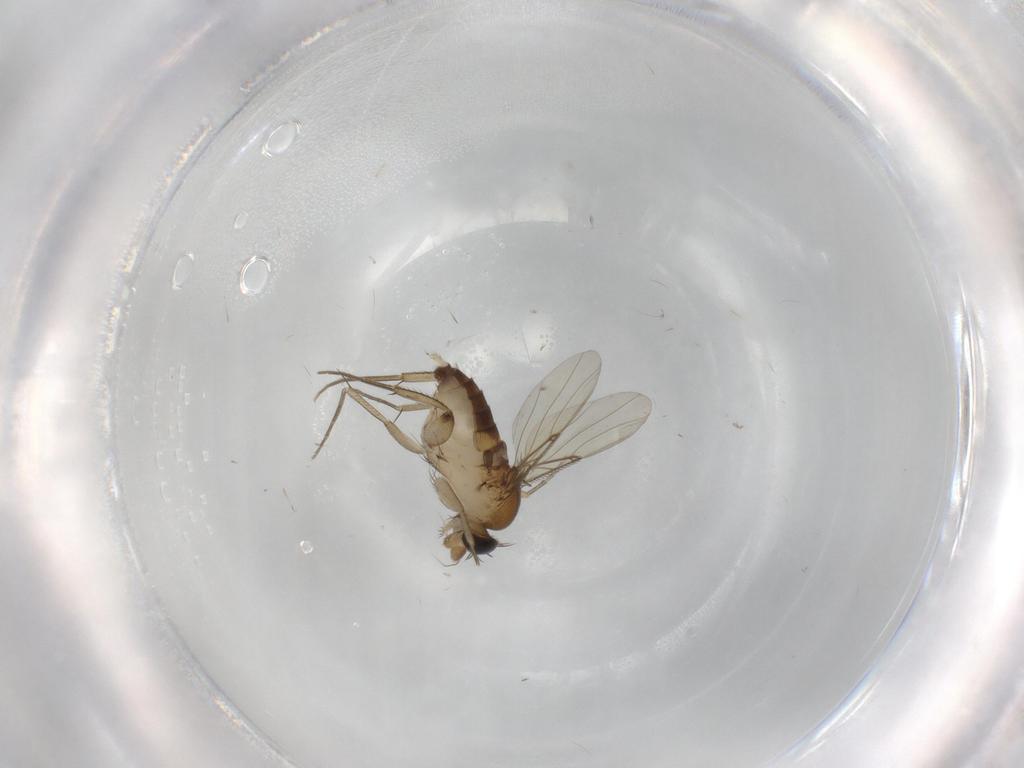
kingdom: Animalia
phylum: Arthropoda
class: Insecta
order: Diptera
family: Phoridae
